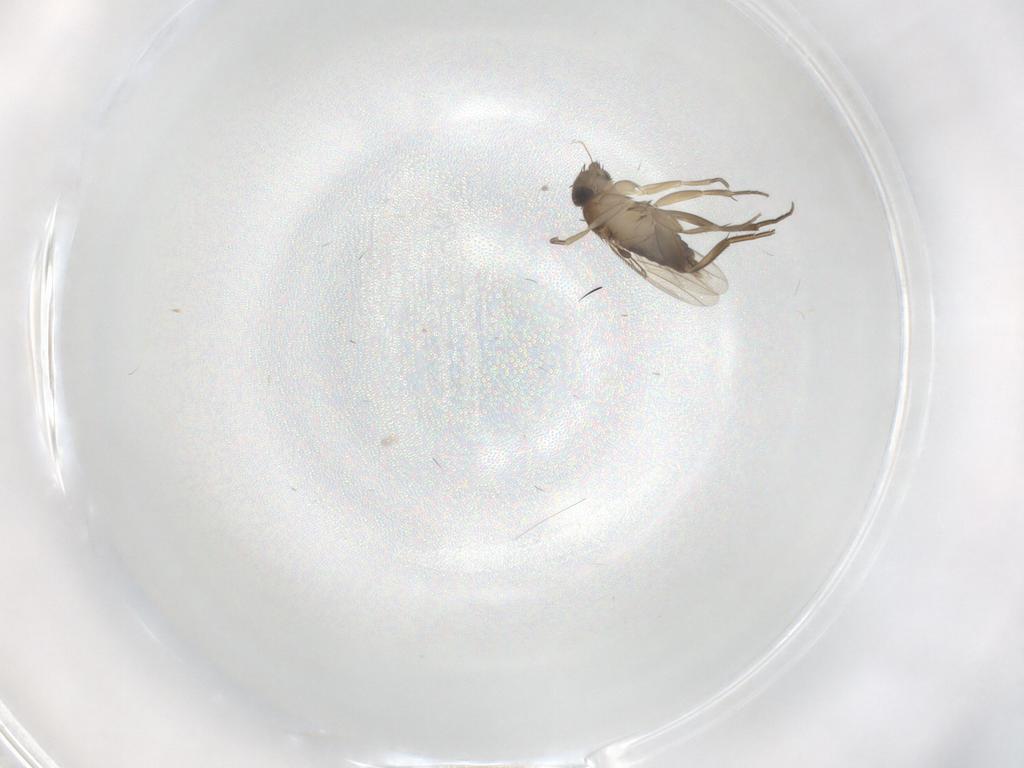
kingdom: Animalia
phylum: Arthropoda
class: Insecta
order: Diptera
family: Phoridae
